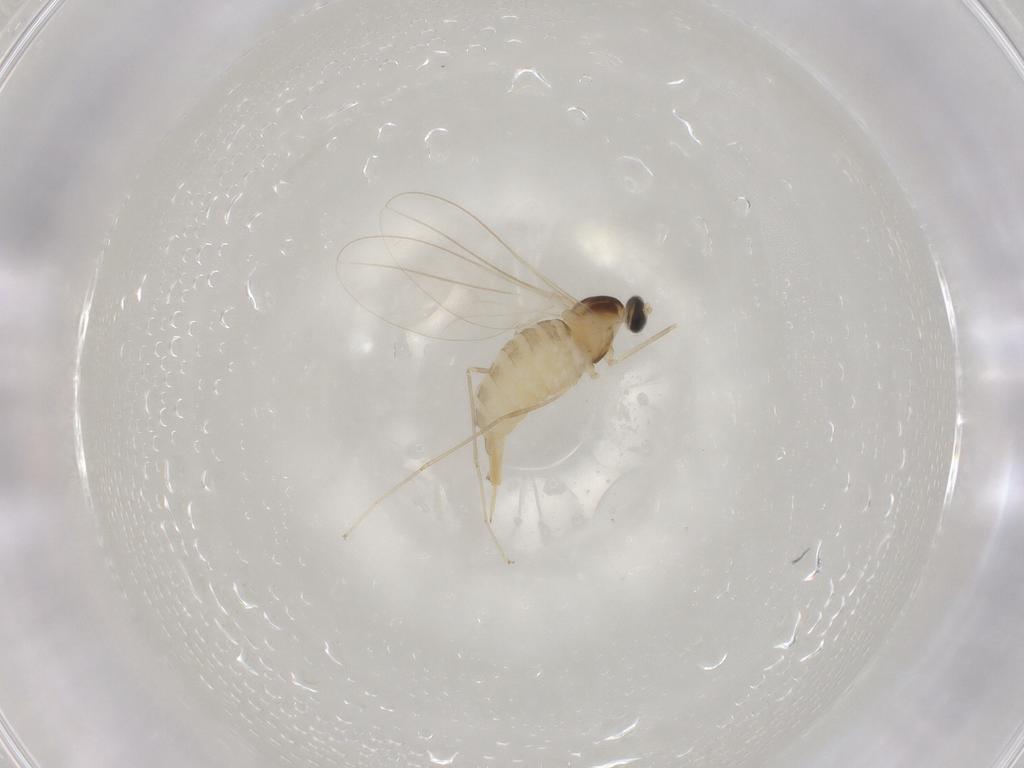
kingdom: Animalia
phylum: Arthropoda
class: Insecta
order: Diptera
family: Cecidomyiidae
